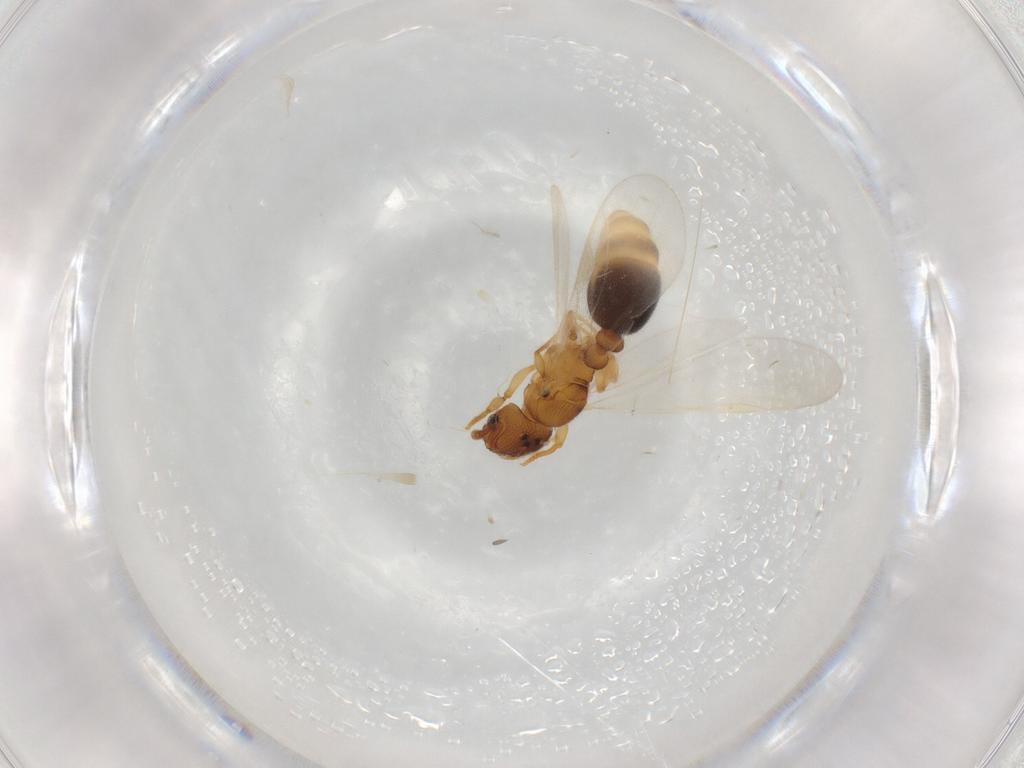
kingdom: Animalia
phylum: Arthropoda
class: Insecta
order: Hymenoptera
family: Formicidae
